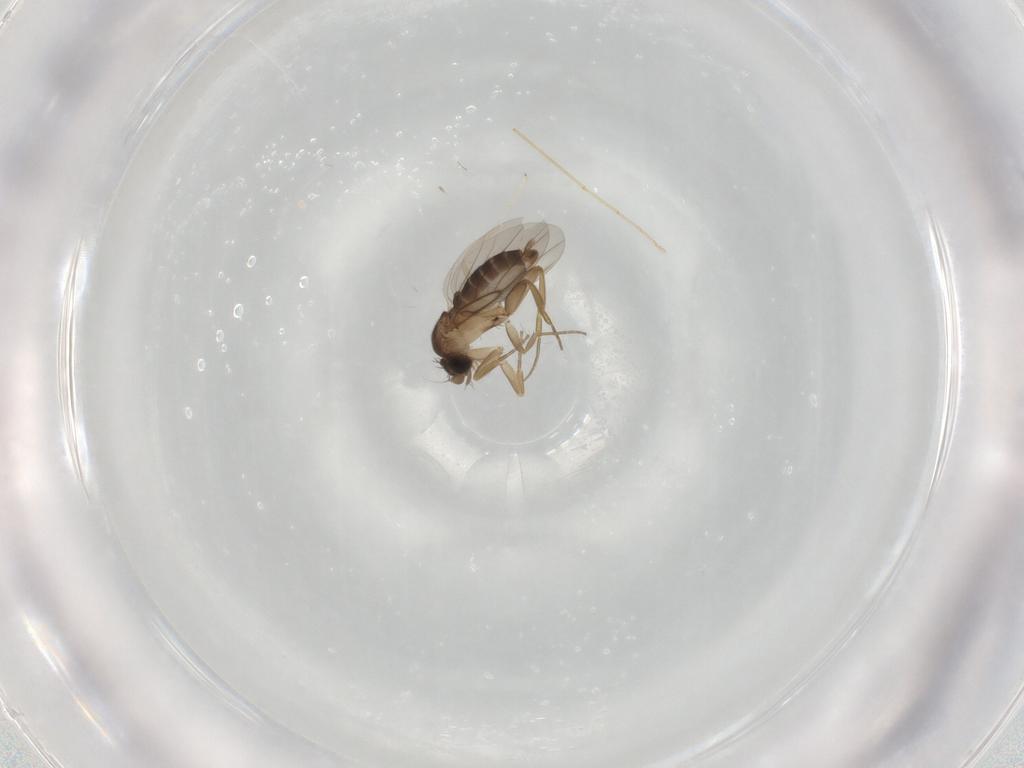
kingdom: Animalia
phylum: Arthropoda
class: Insecta
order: Diptera
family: Phoridae
